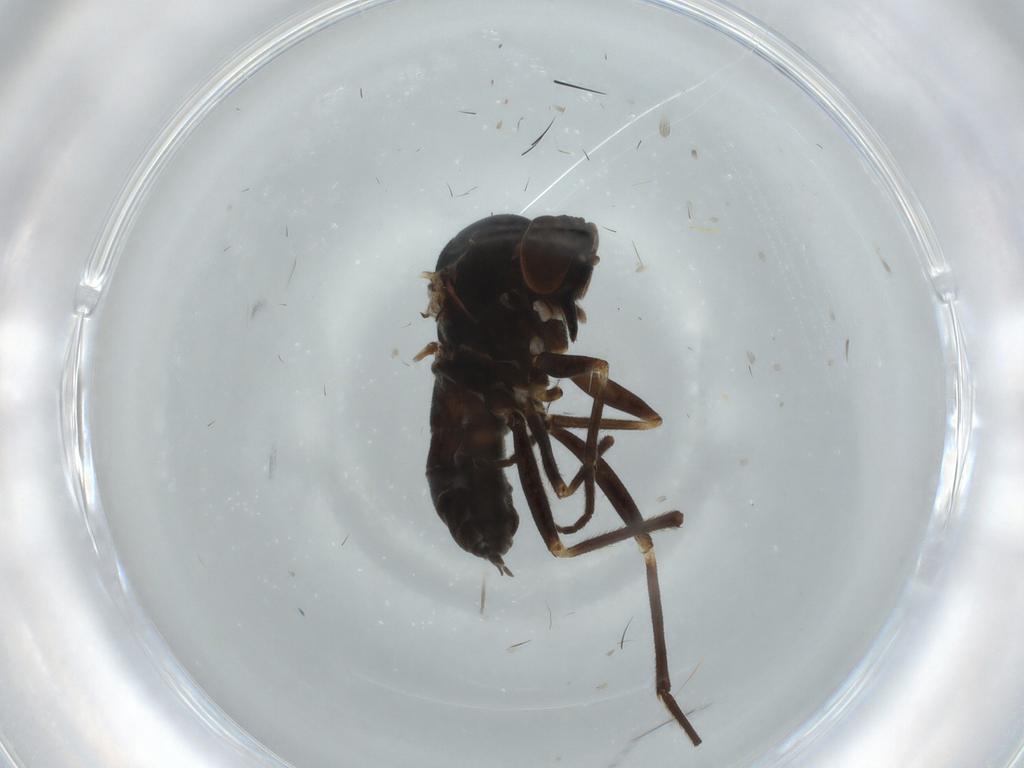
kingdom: Animalia
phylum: Arthropoda
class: Insecta
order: Diptera
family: Empididae
